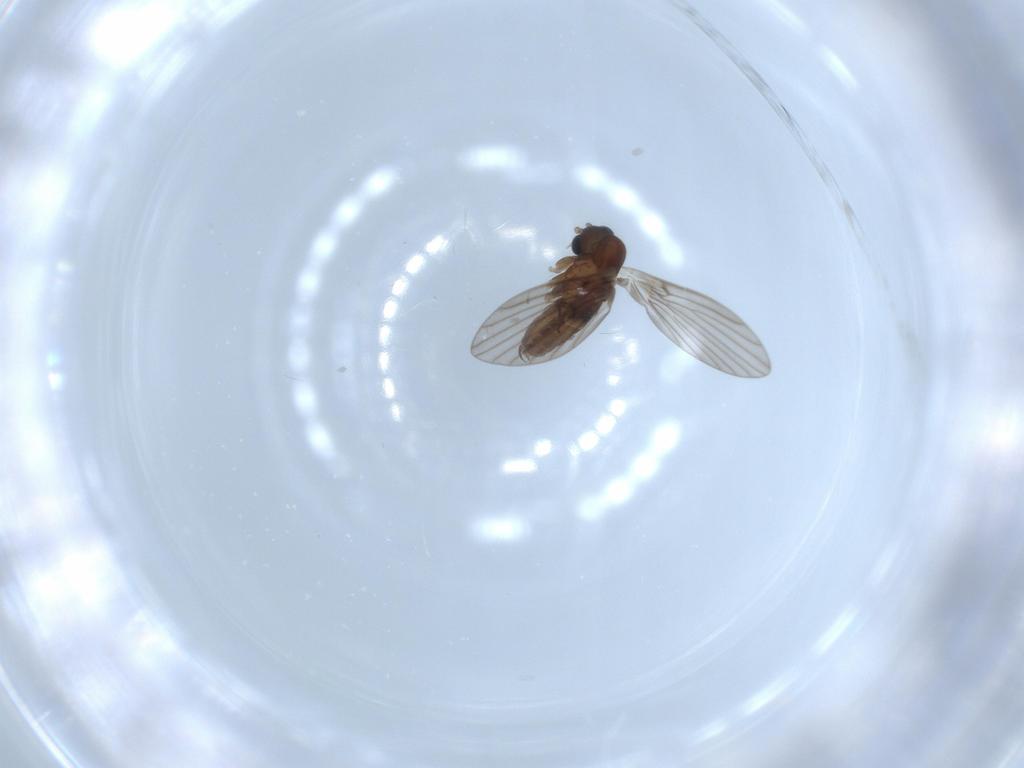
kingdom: Animalia
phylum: Arthropoda
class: Insecta
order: Diptera
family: Psychodidae
